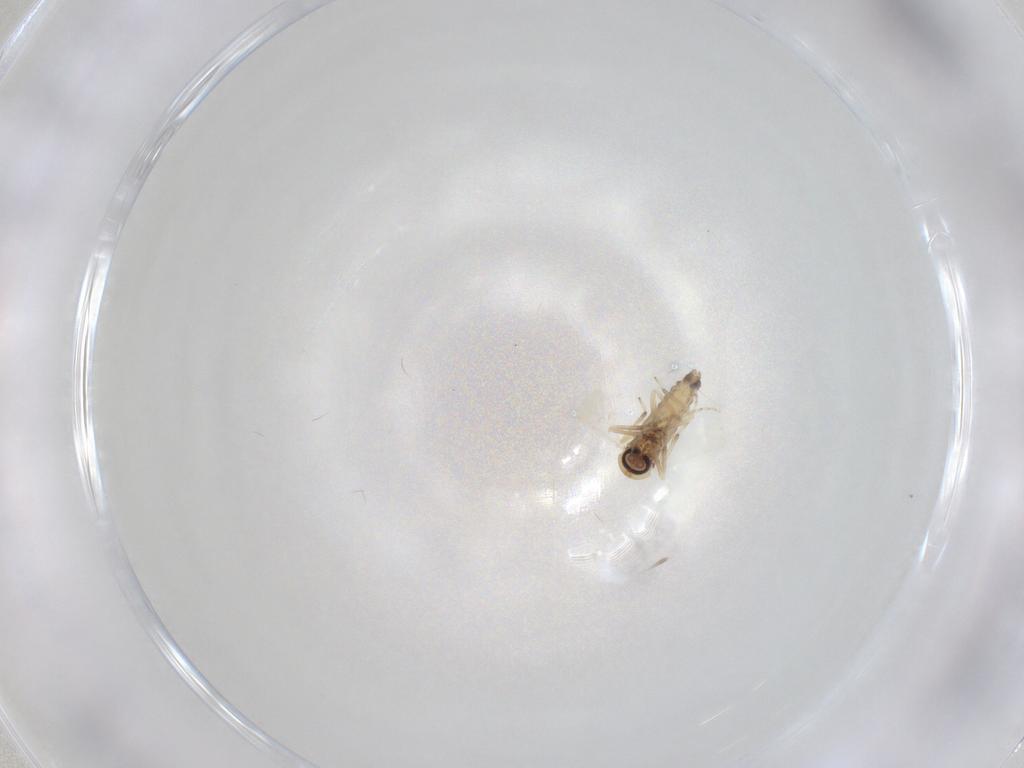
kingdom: Animalia
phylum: Arthropoda
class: Insecta
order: Diptera
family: Ceratopogonidae
